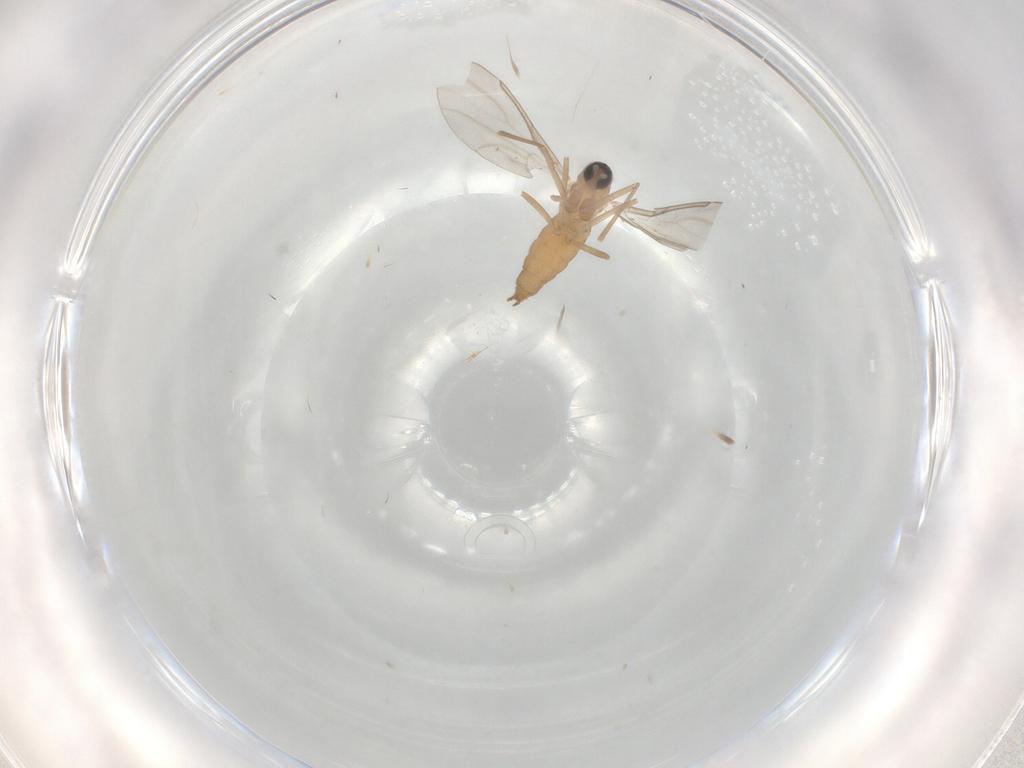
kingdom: Animalia
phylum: Arthropoda
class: Insecta
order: Diptera
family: Cecidomyiidae
